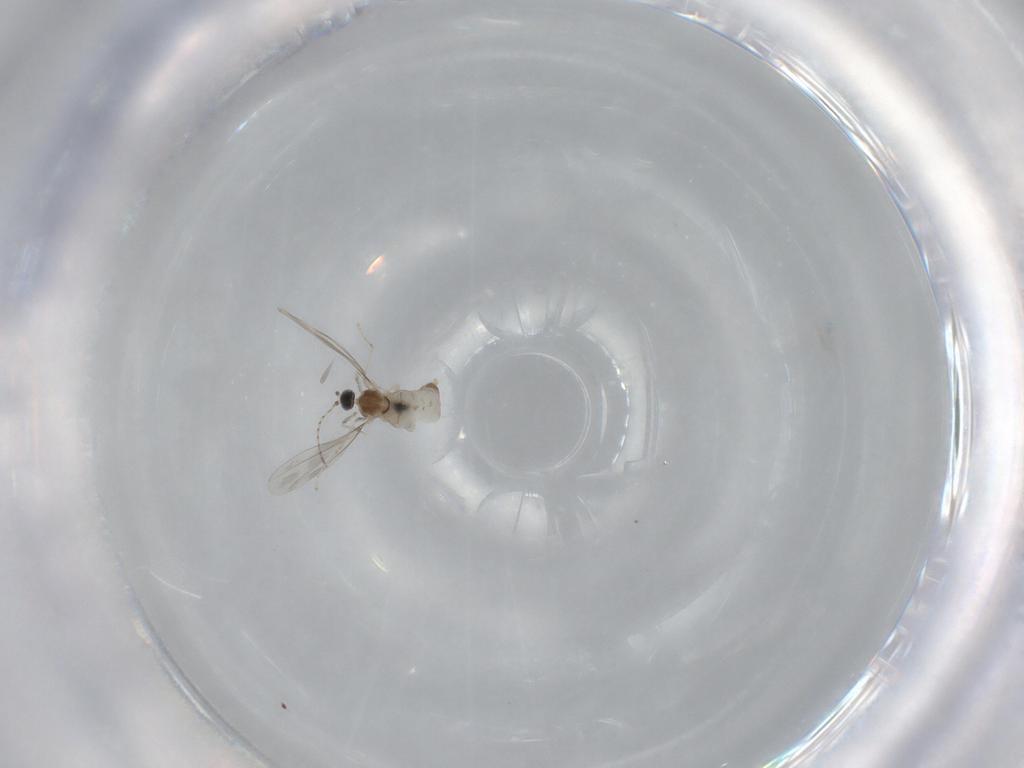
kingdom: Animalia
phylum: Arthropoda
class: Insecta
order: Diptera
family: Cecidomyiidae
